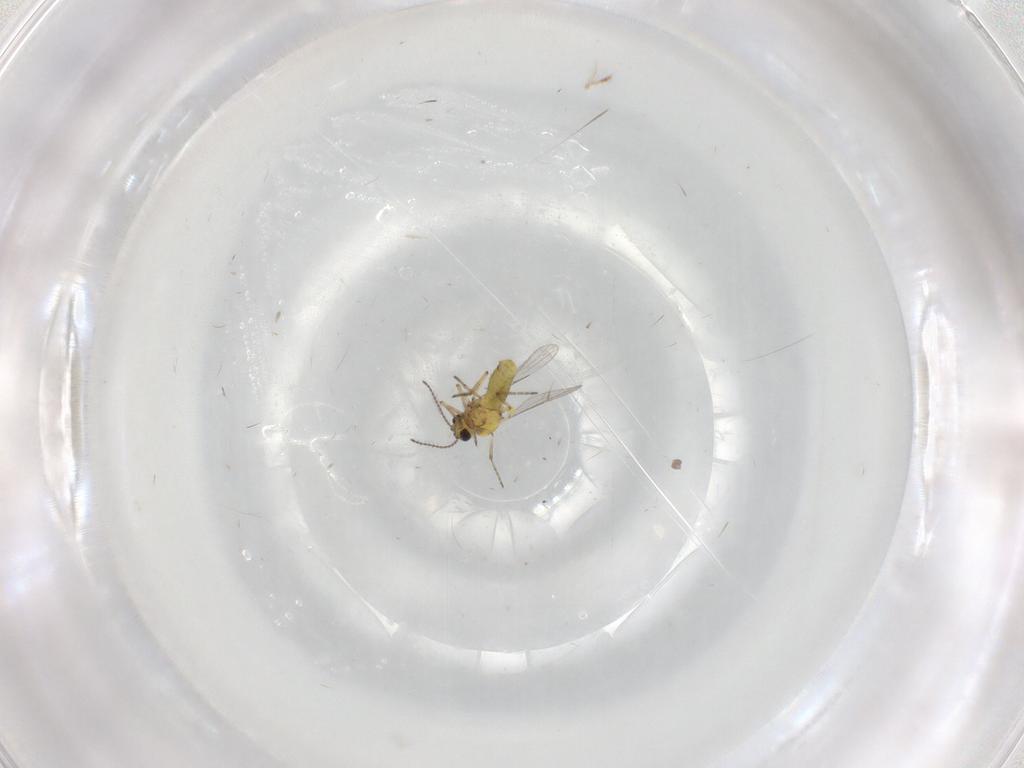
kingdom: Animalia
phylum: Arthropoda
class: Insecta
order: Diptera
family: Ceratopogonidae
